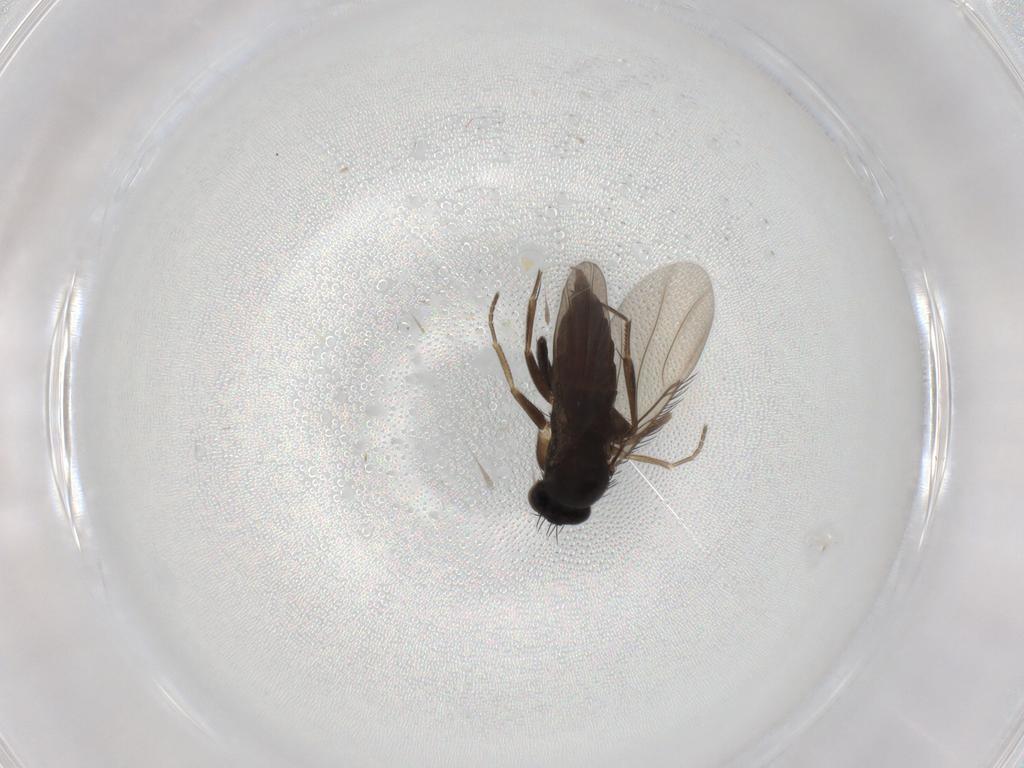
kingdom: Animalia
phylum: Arthropoda
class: Insecta
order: Diptera
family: Phoridae
